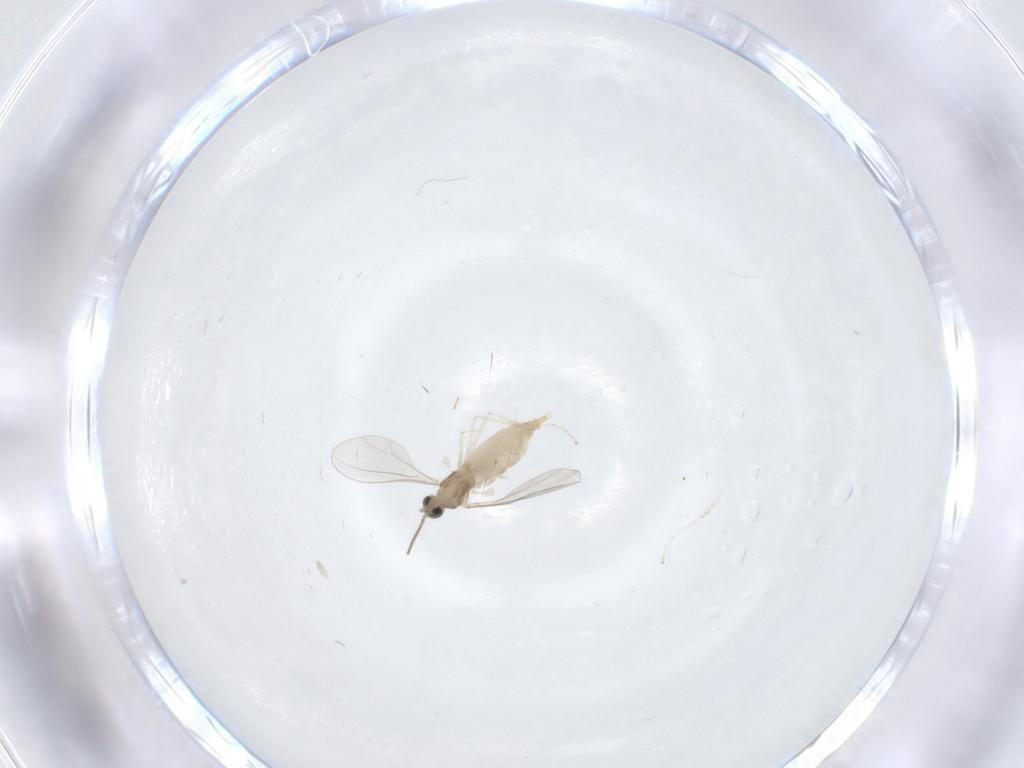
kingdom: Animalia
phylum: Arthropoda
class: Insecta
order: Diptera
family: Cecidomyiidae
